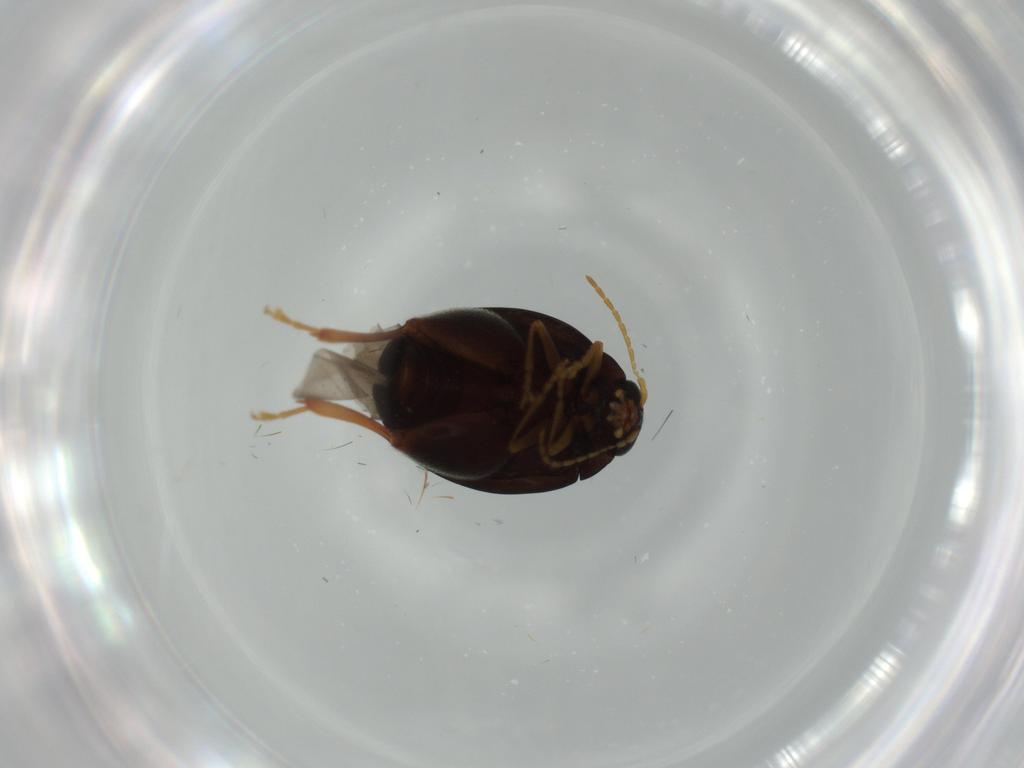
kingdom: Animalia
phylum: Arthropoda
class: Insecta
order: Coleoptera
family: Chrysomelidae
